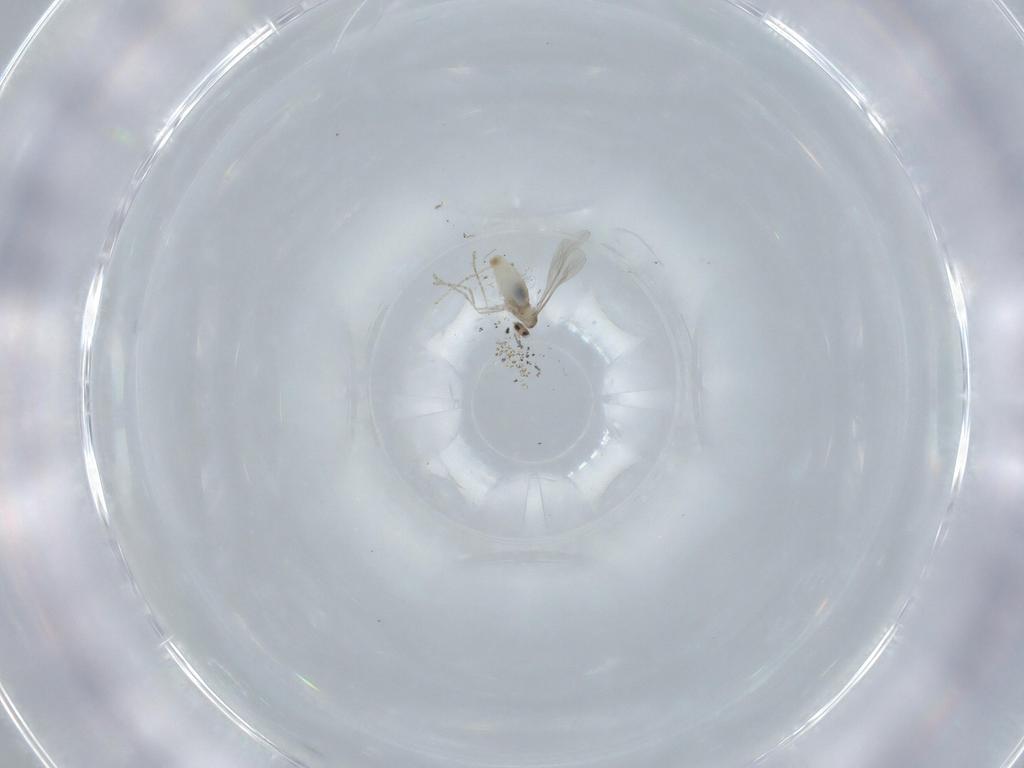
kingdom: Animalia
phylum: Arthropoda
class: Insecta
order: Diptera
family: Cecidomyiidae
